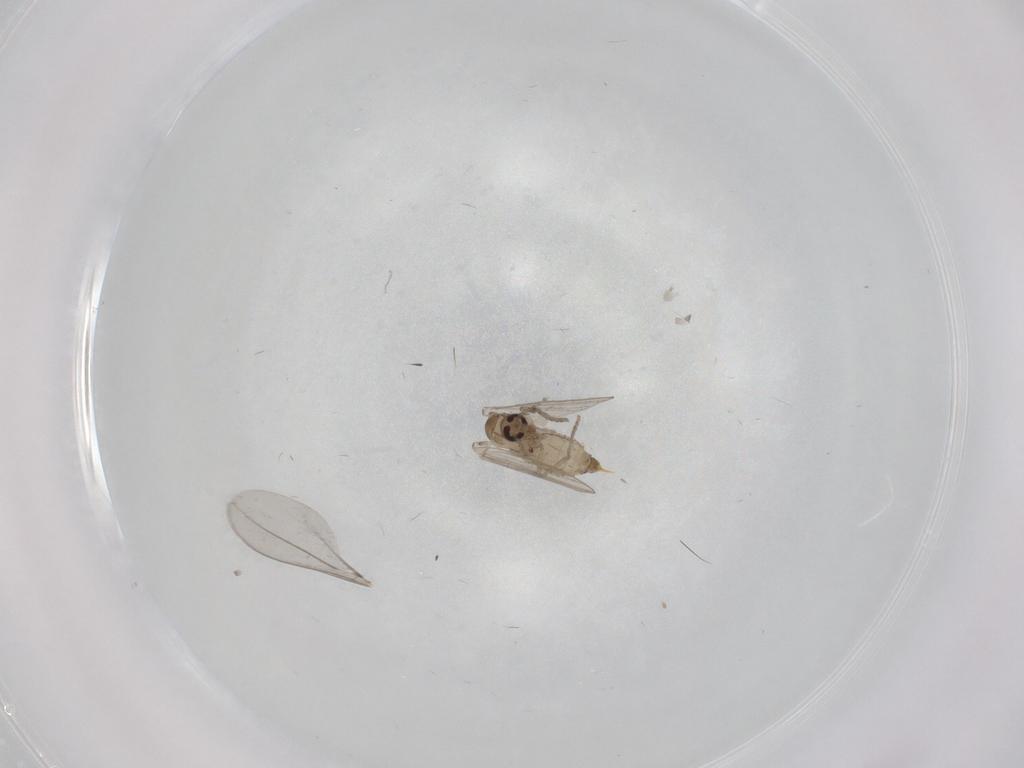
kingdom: Animalia
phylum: Arthropoda
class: Insecta
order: Diptera
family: Psychodidae
